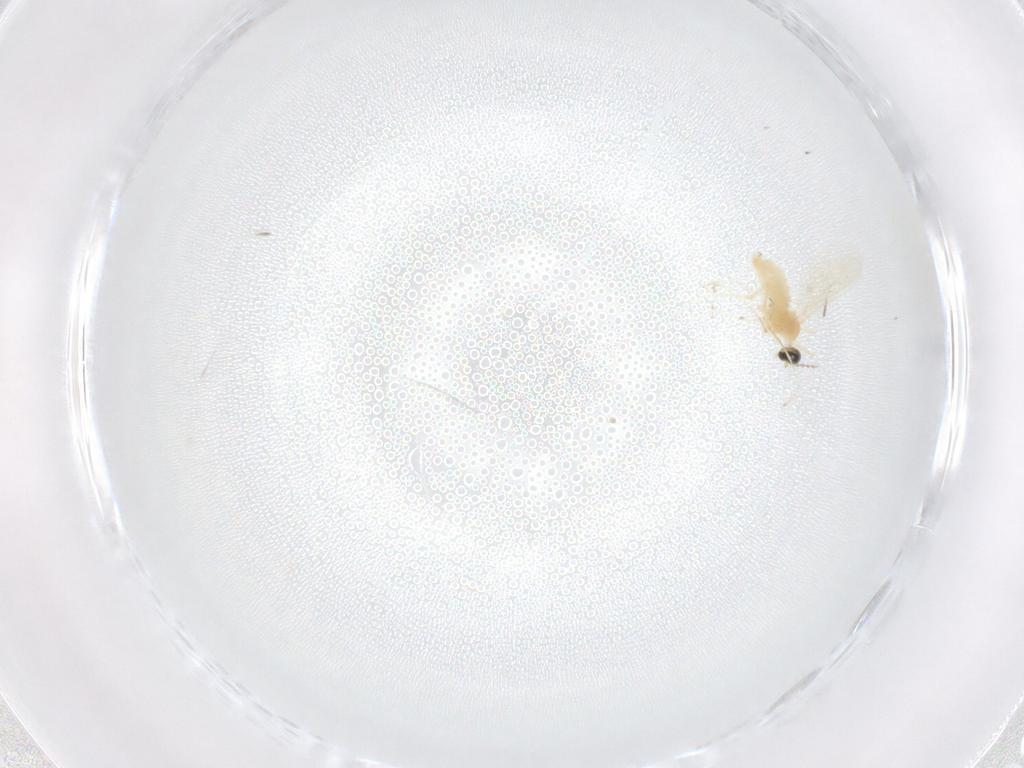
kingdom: Animalia
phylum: Arthropoda
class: Insecta
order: Diptera
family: Cecidomyiidae
